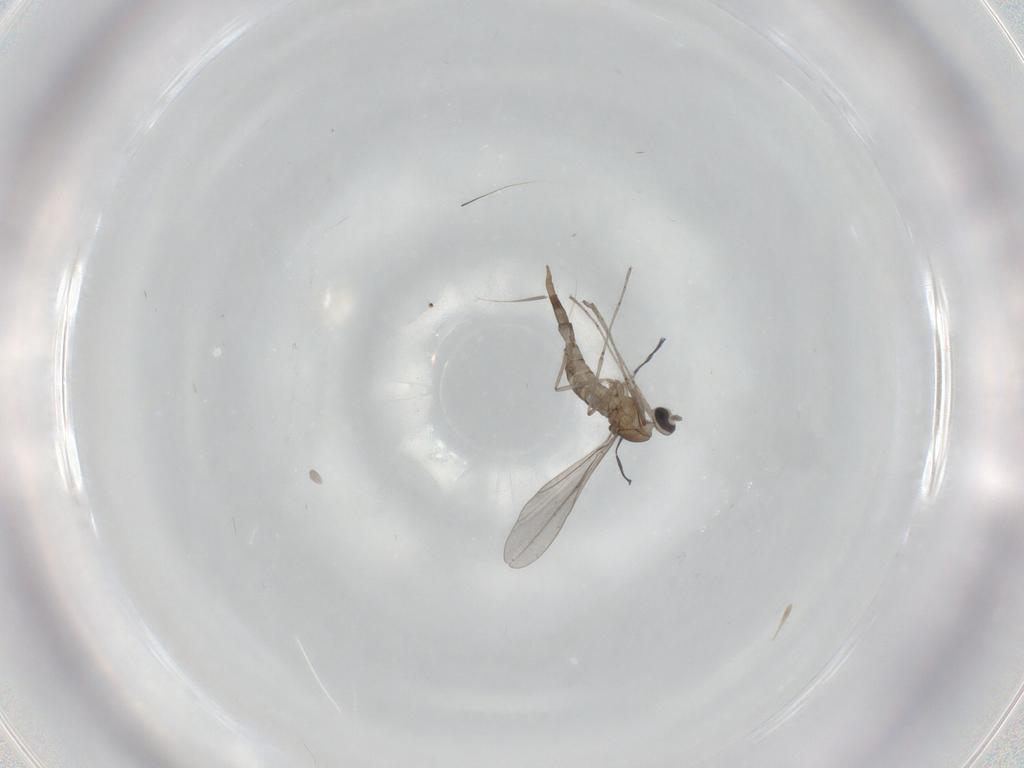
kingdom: Animalia
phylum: Arthropoda
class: Insecta
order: Diptera
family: Cecidomyiidae
